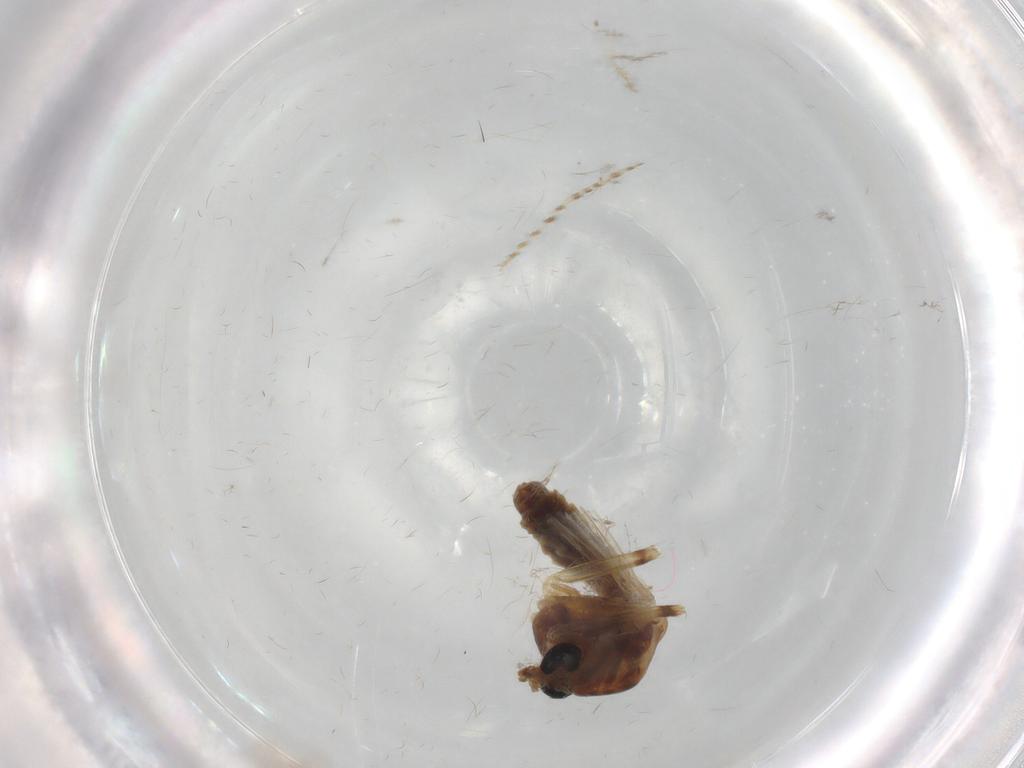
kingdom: Animalia
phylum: Arthropoda
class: Insecta
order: Diptera
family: Chironomidae
